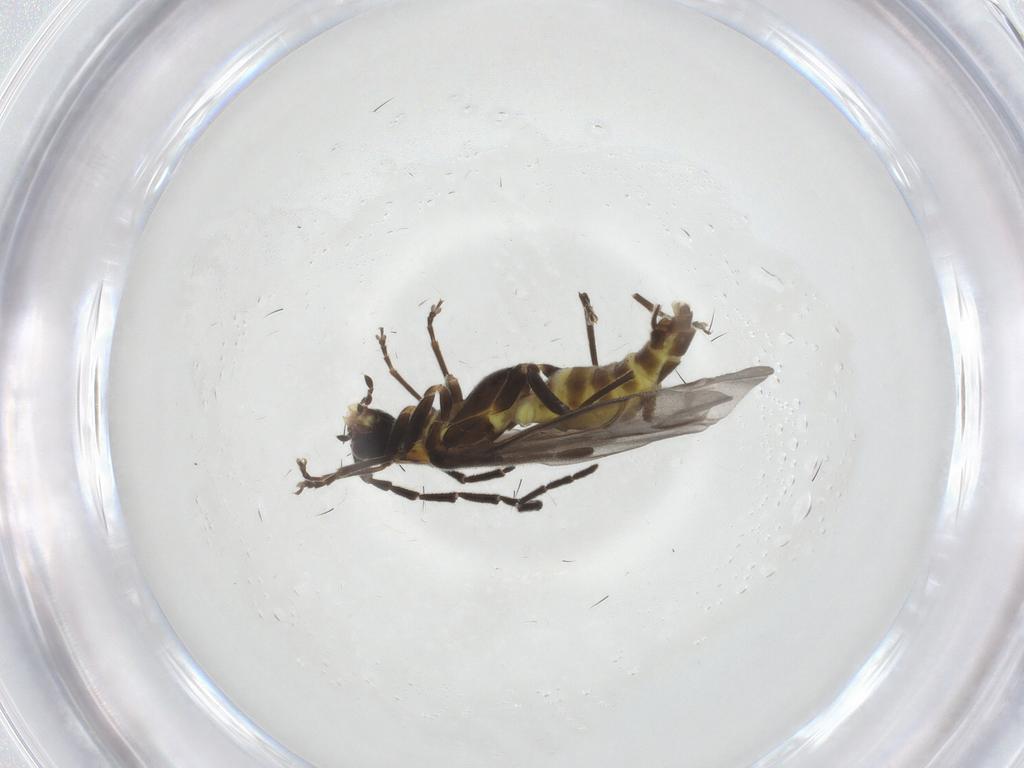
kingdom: Animalia
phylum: Arthropoda
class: Insecta
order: Coleoptera
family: Cantharidae
